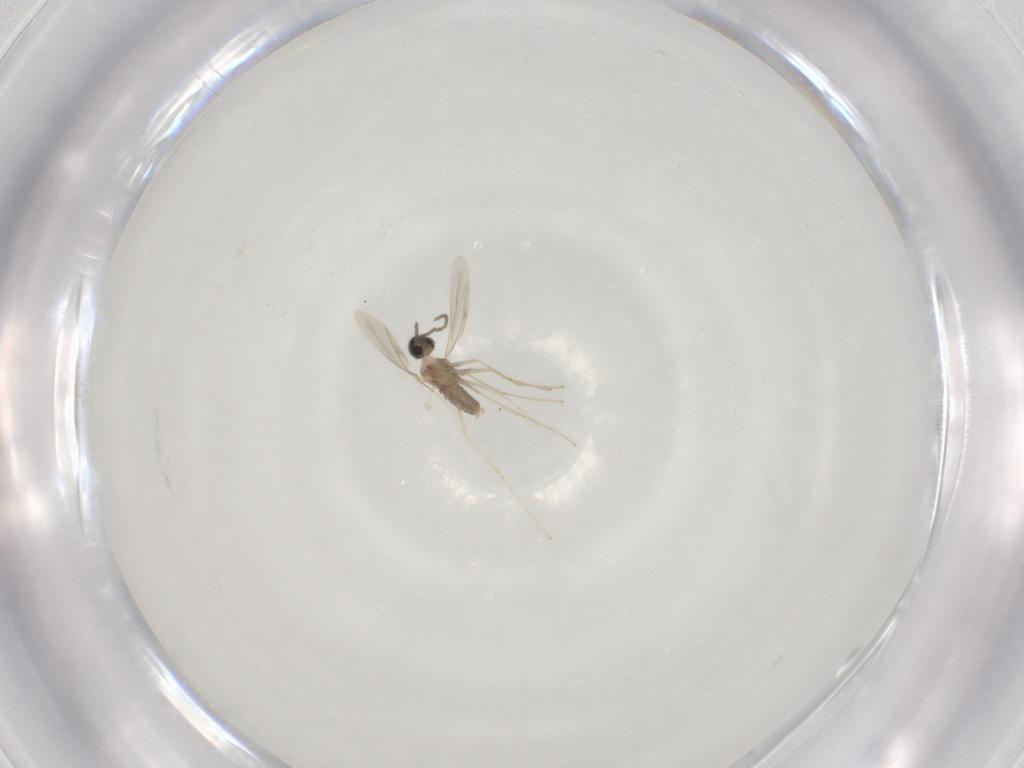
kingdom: Animalia
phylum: Arthropoda
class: Insecta
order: Diptera
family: Cecidomyiidae
